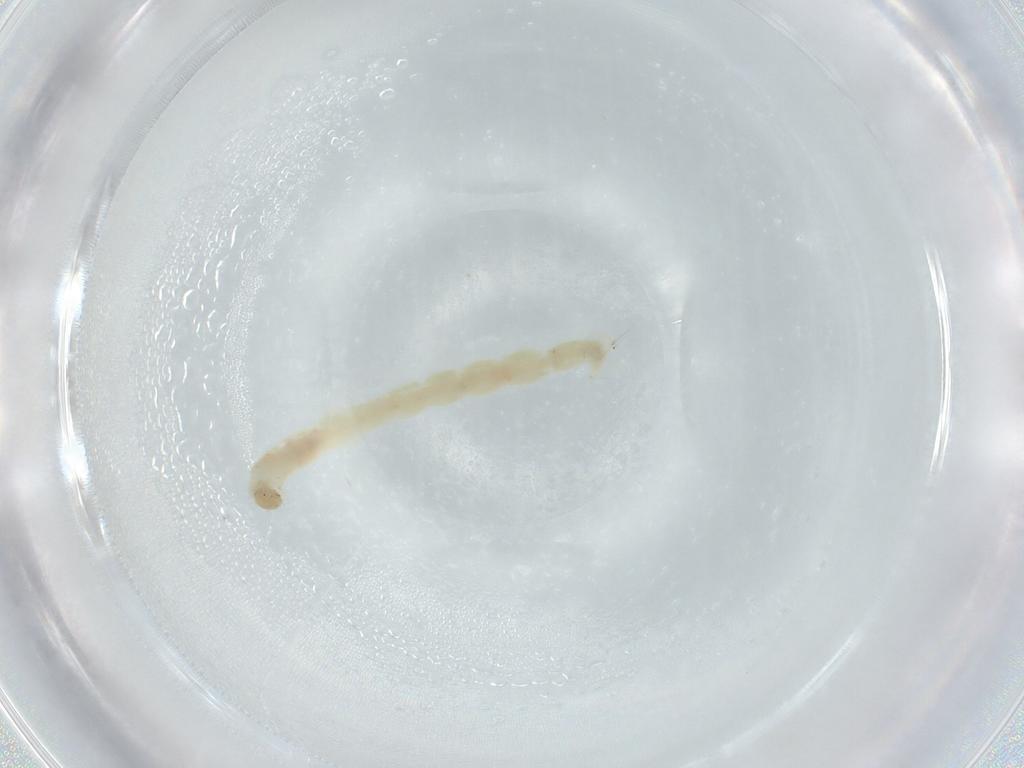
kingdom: Animalia
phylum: Arthropoda
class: Insecta
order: Diptera
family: Chironomidae
